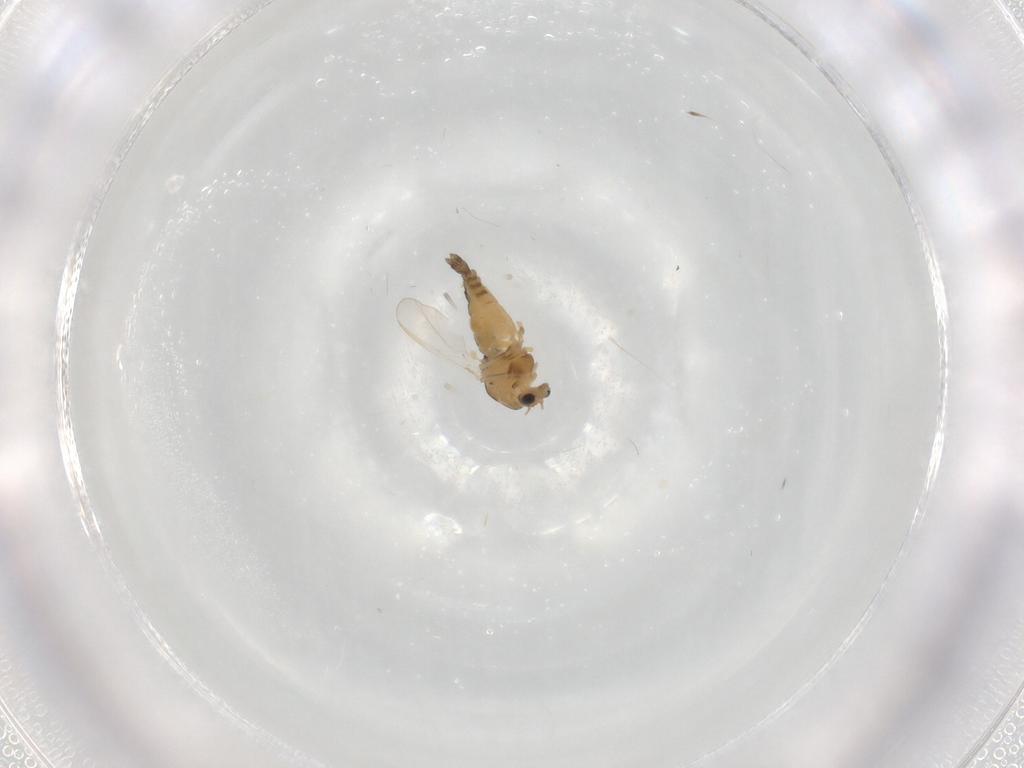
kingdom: Animalia
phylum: Arthropoda
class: Insecta
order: Diptera
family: Chironomidae
